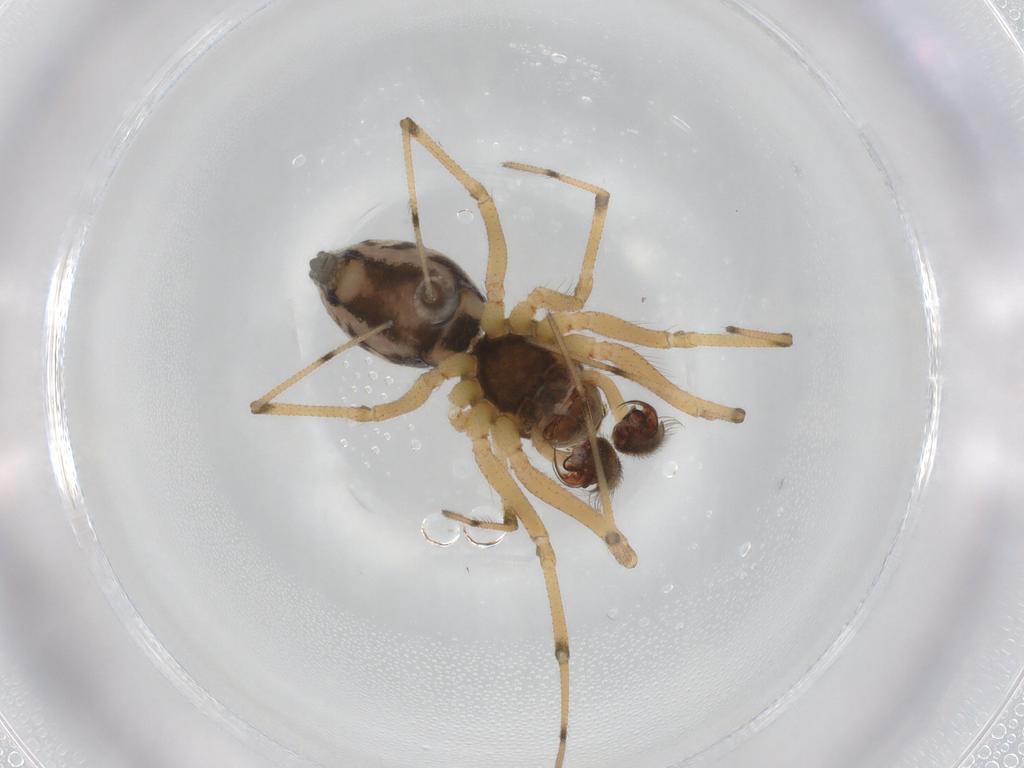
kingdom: Animalia
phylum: Arthropoda
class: Arachnida
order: Araneae
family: Linyphiidae
